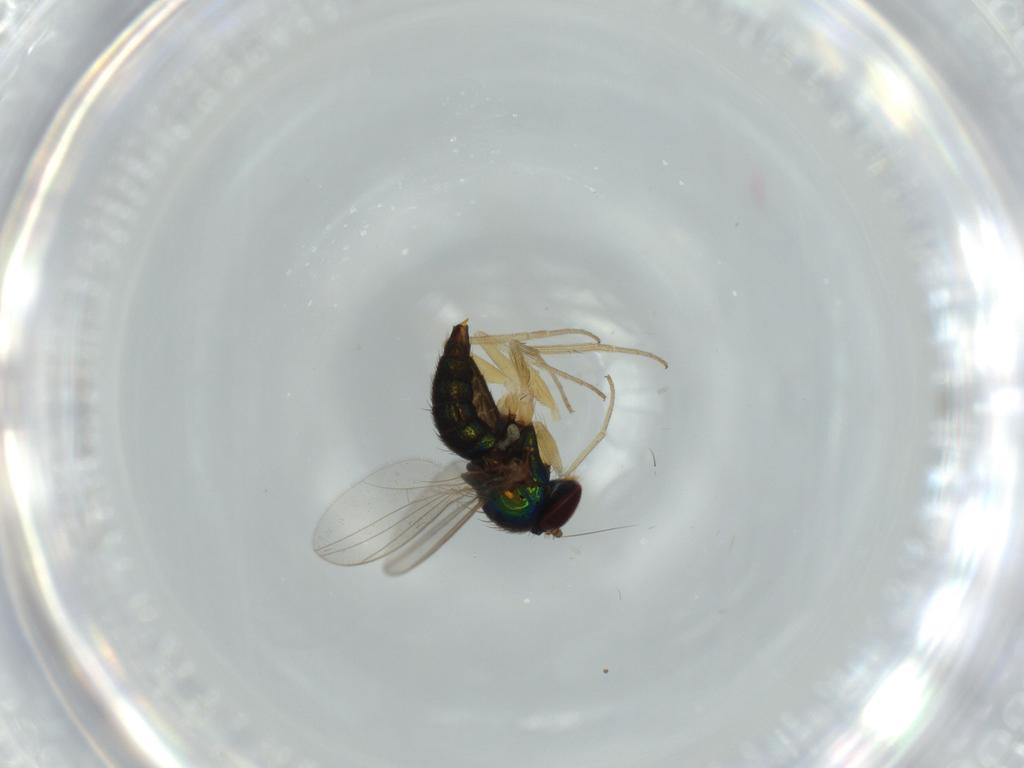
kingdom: Animalia
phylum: Arthropoda
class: Insecta
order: Diptera
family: Dolichopodidae
